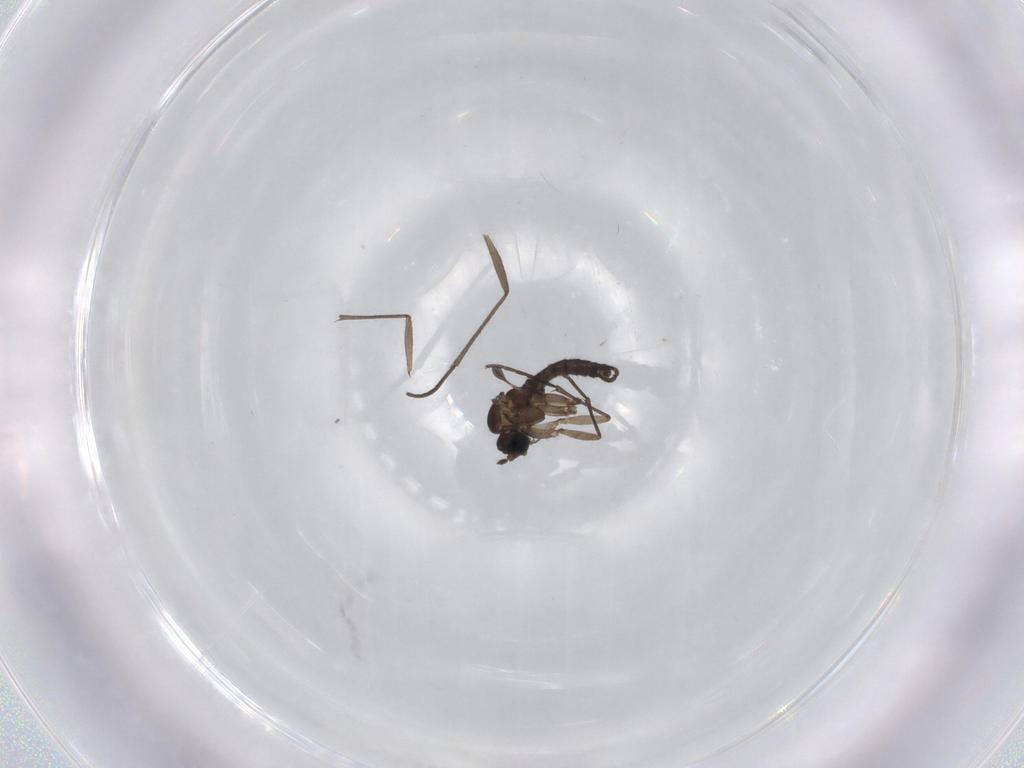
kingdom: Animalia
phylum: Arthropoda
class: Insecta
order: Diptera
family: Sciaridae
